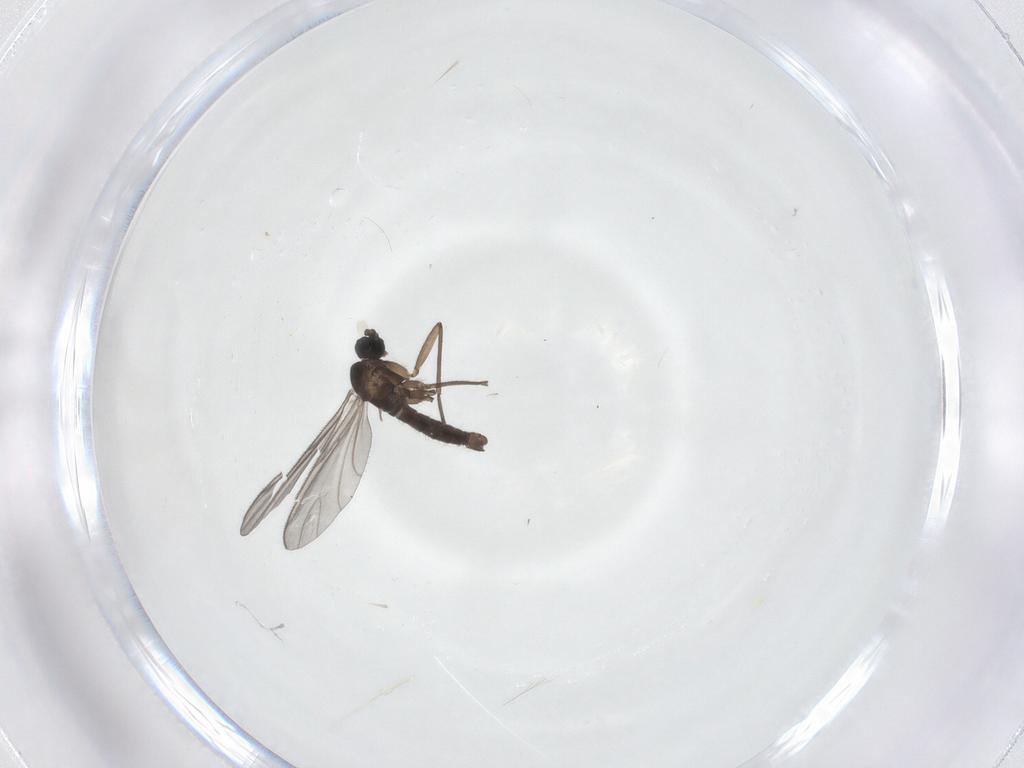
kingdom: Animalia
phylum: Arthropoda
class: Insecta
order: Diptera
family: Sciaridae
